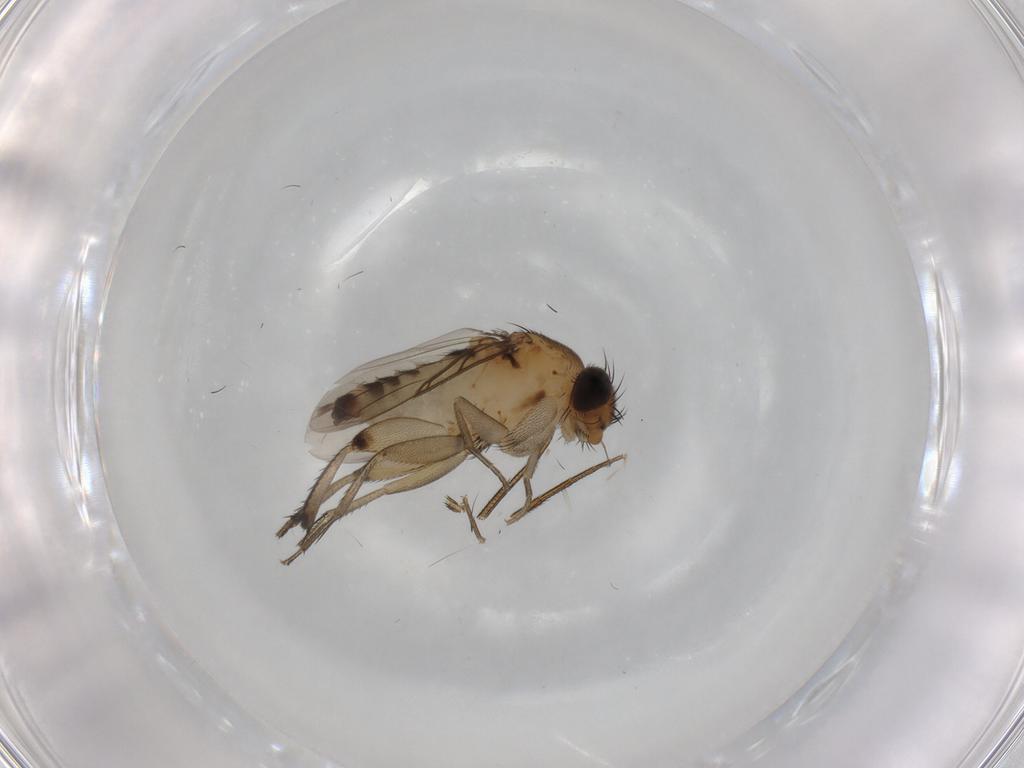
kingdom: Animalia
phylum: Arthropoda
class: Insecta
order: Diptera
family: Phoridae
